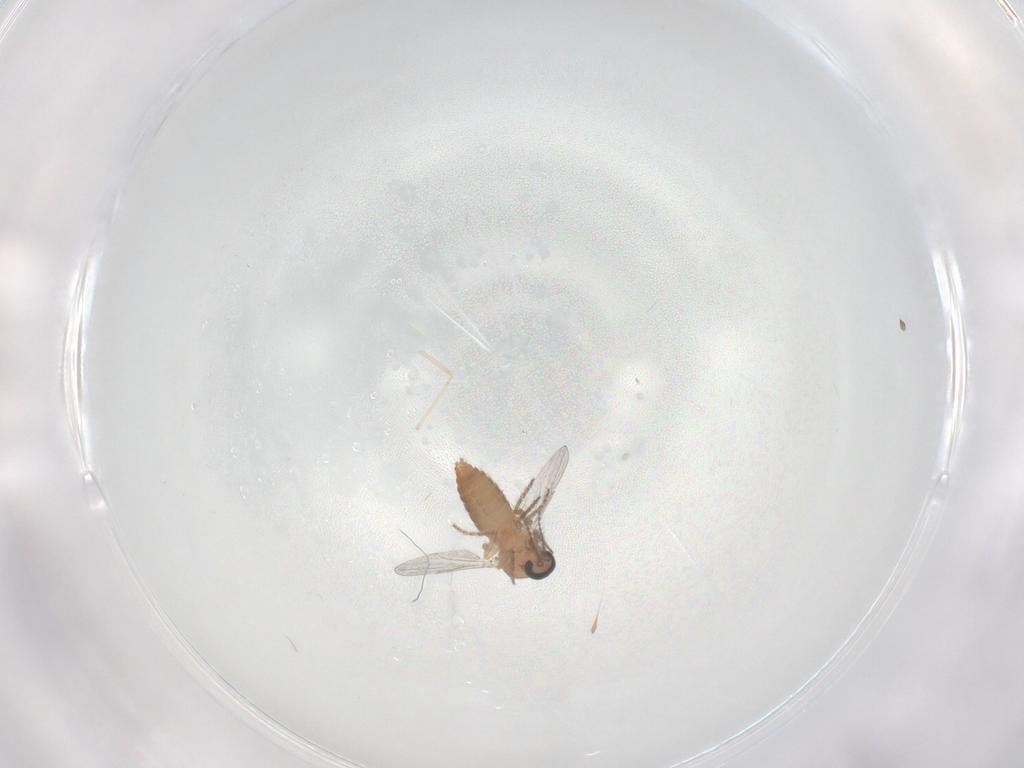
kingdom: Animalia
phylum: Arthropoda
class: Insecta
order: Diptera
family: Ceratopogonidae
